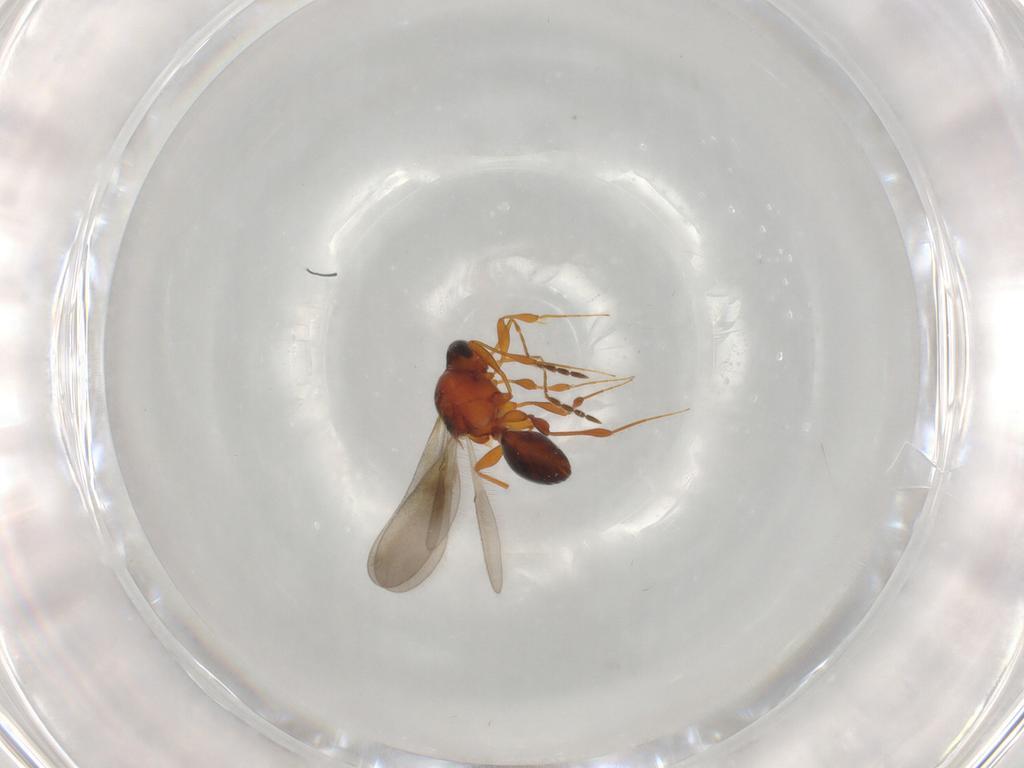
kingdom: Animalia
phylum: Arthropoda
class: Insecta
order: Hymenoptera
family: Platygastridae
